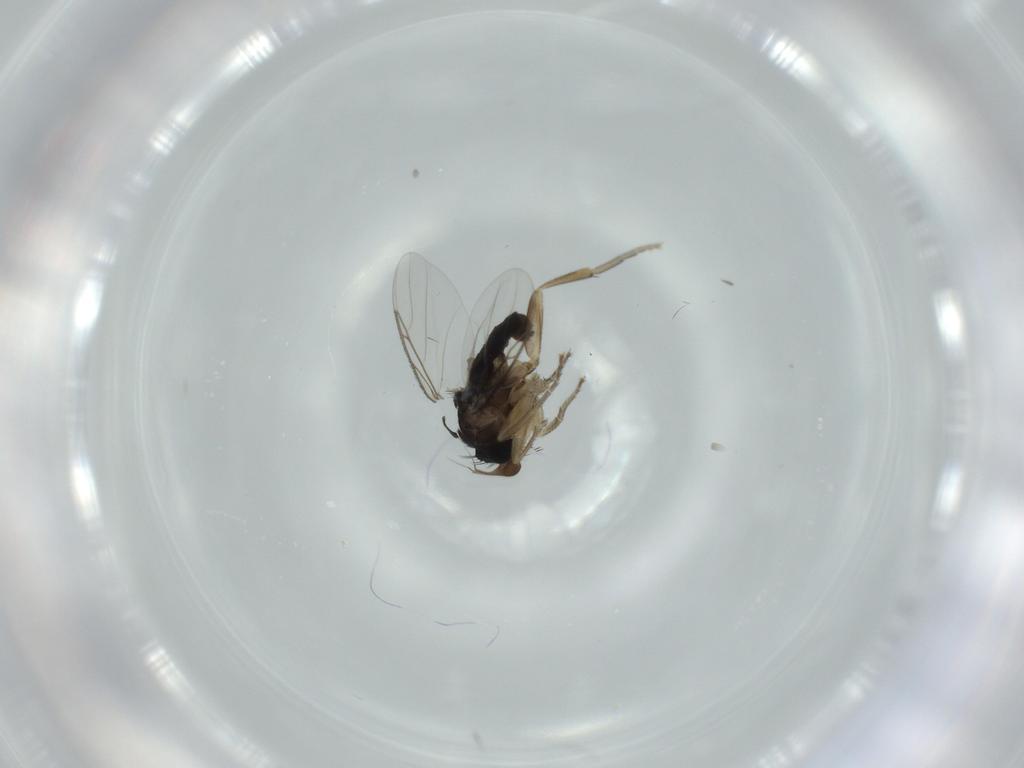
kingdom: Animalia
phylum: Arthropoda
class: Insecta
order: Diptera
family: Phoridae
